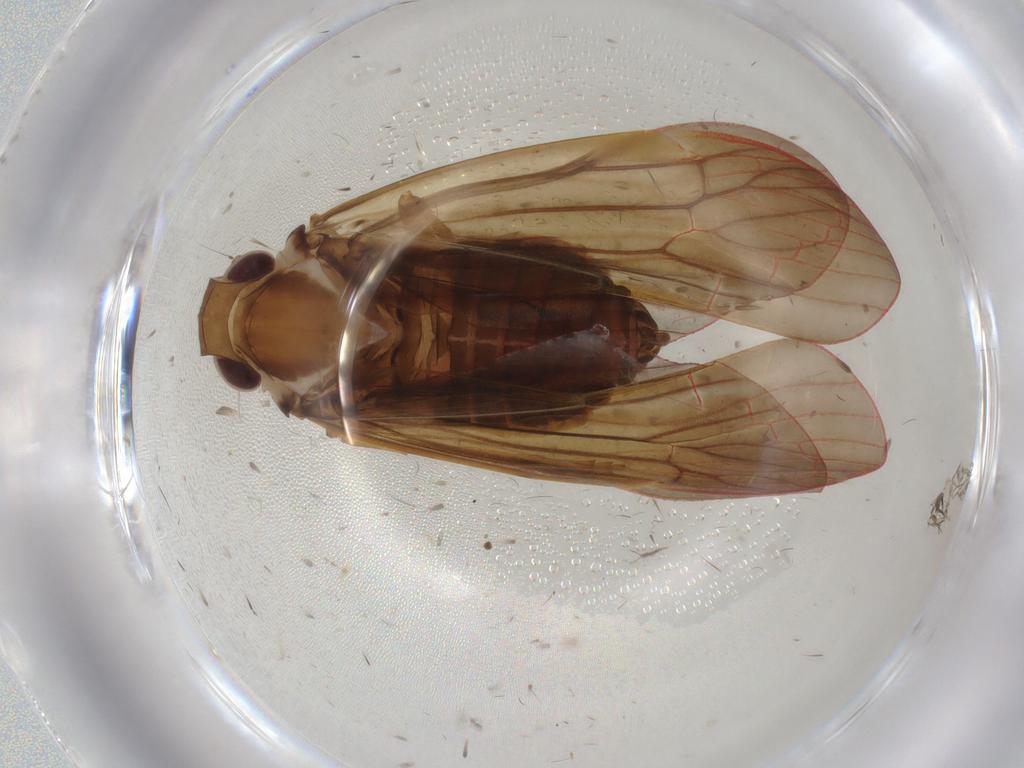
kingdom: Animalia
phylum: Arthropoda
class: Insecta
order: Hemiptera
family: Achilidae
